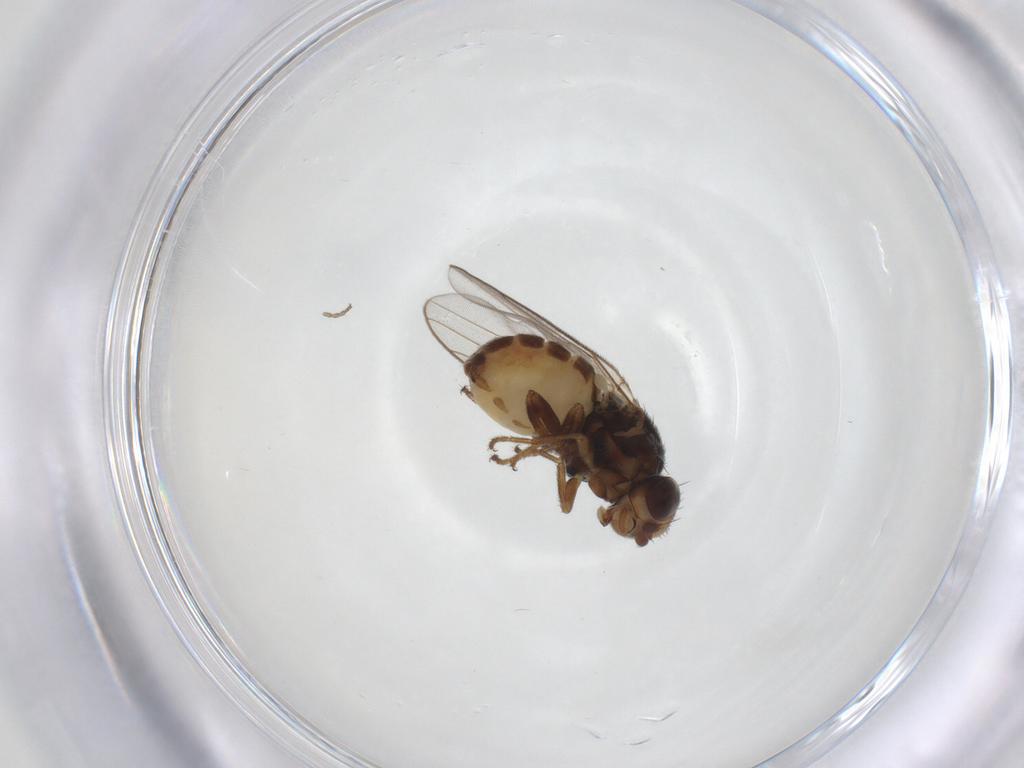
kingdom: Animalia
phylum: Arthropoda
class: Insecta
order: Diptera
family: Chloropidae
